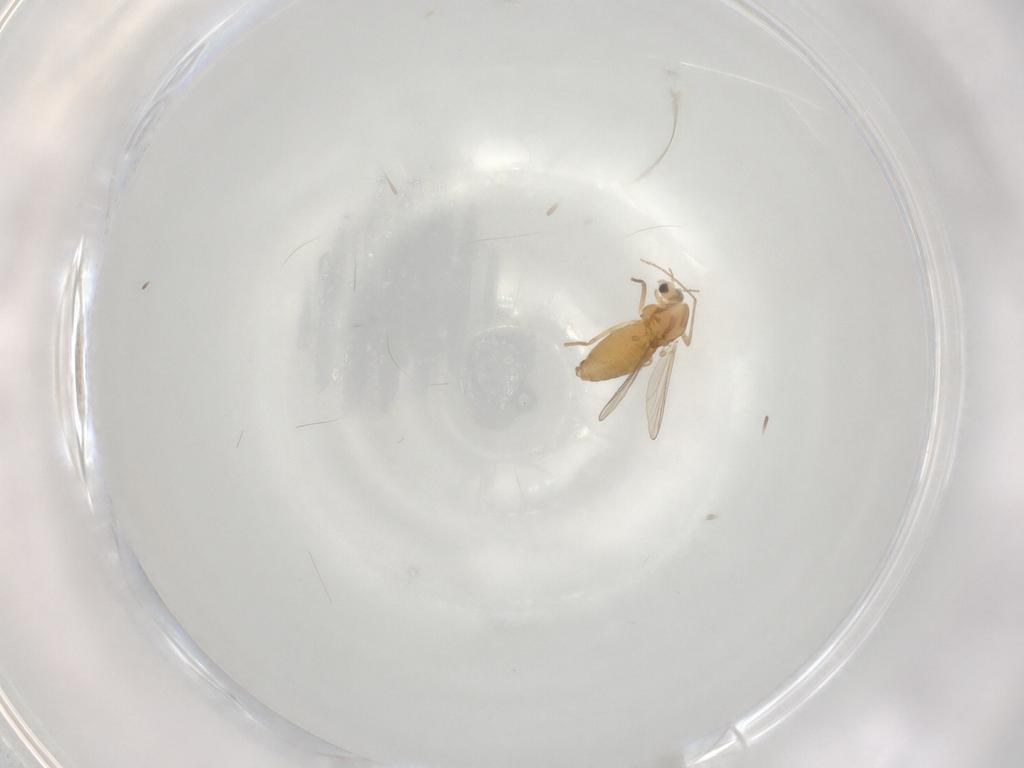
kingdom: Animalia
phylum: Arthropoda
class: Insecta
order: Diptera
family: Chironomidae
